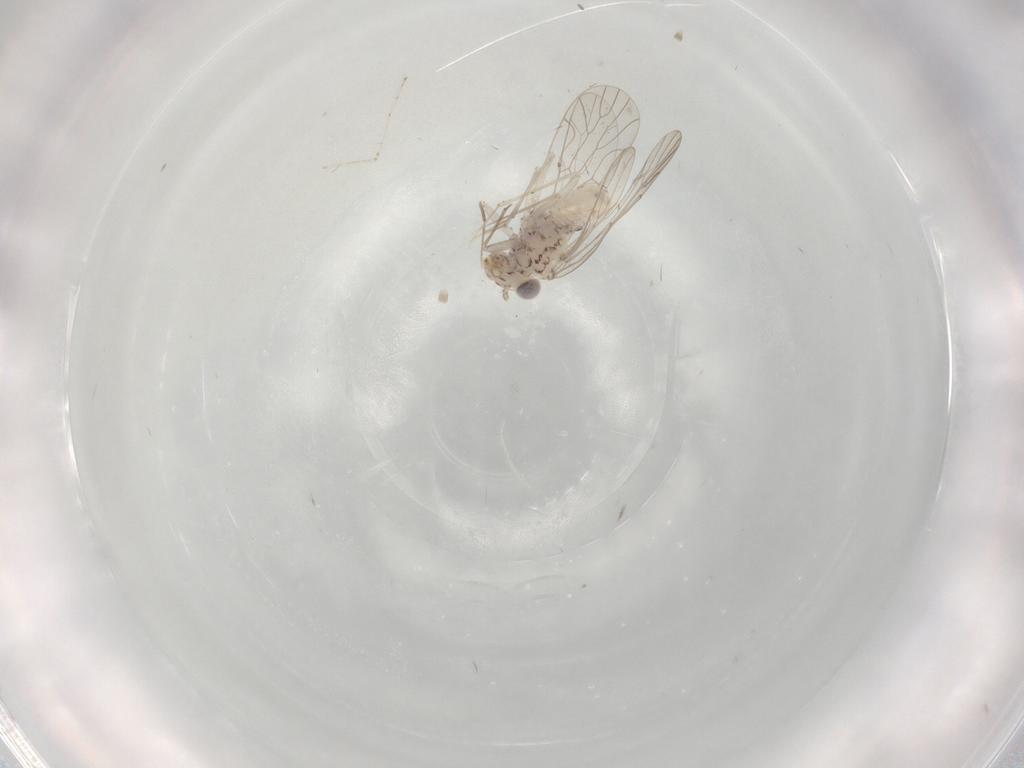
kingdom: Animalia
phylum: Arthropoda
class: Insecta
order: Psocodea
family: Amphientomidae
